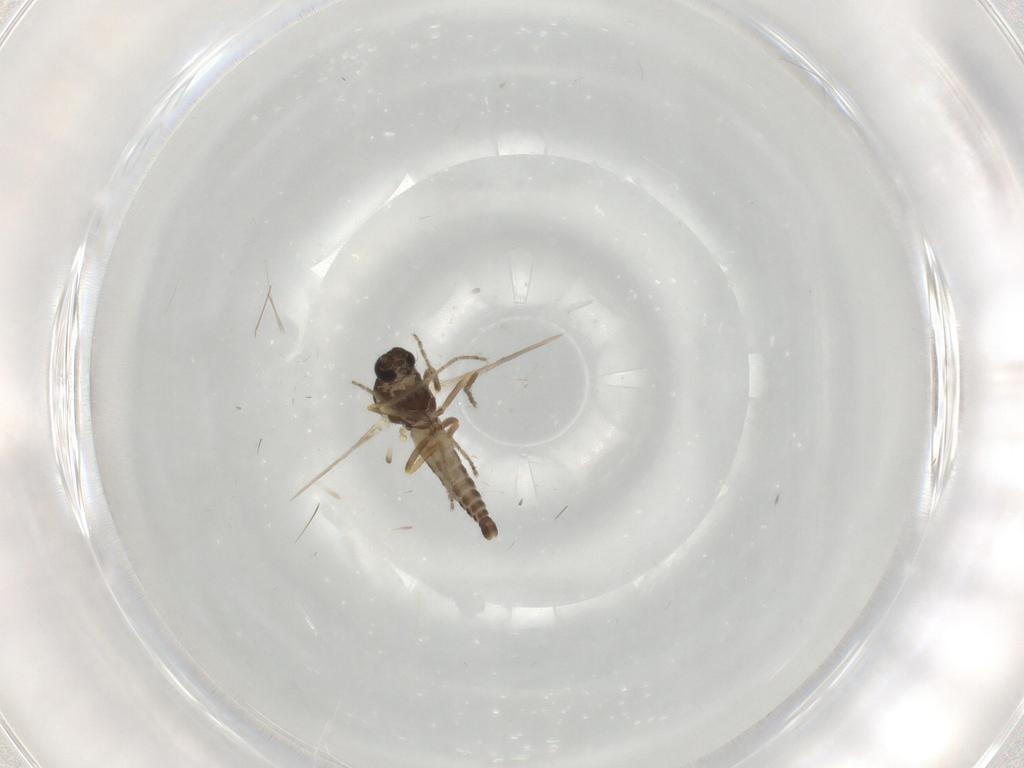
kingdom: Animalia
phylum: Arthropoda
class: Insecta
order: Diptera
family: Ceratopogonidae
